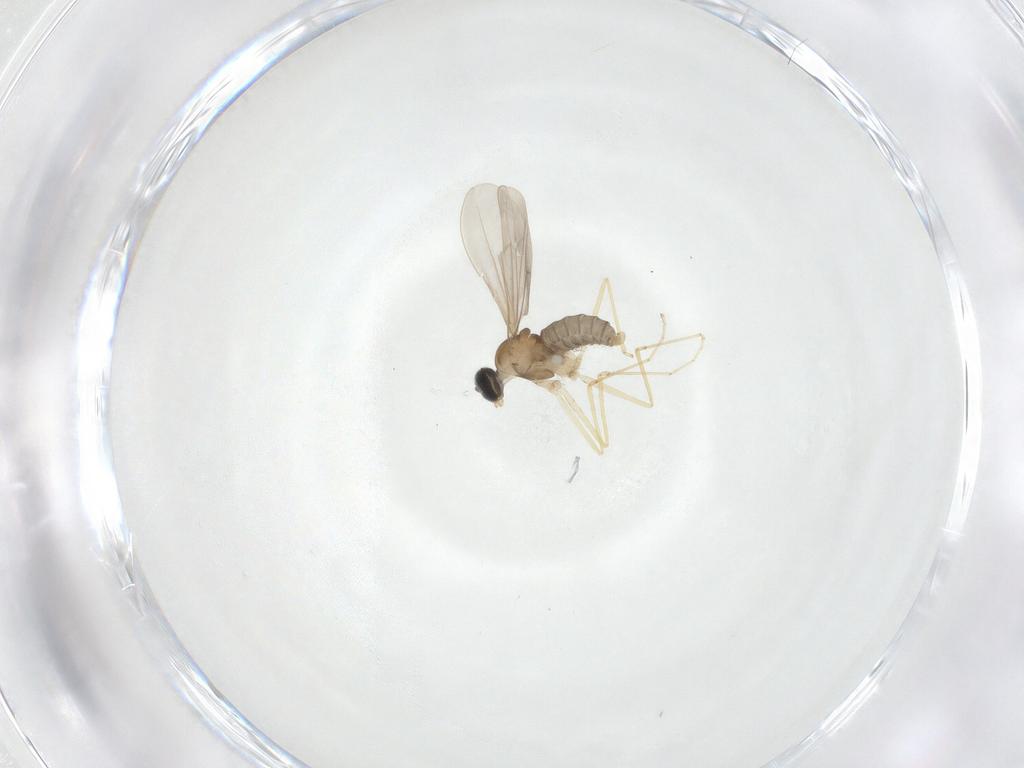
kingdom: Animalia
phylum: Arthropoda
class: Insecta
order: Diptera
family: Cecidomyiidae
